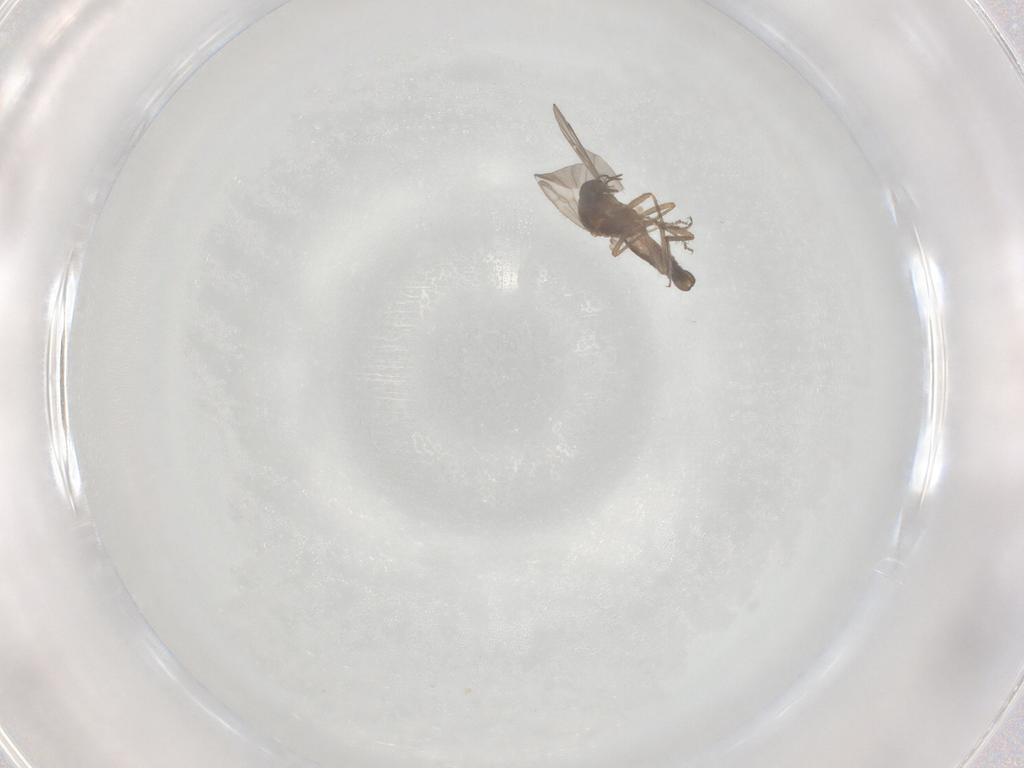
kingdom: Animalia
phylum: Arthropoda
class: Insecta
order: Diptera
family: Ceratopogonidae
